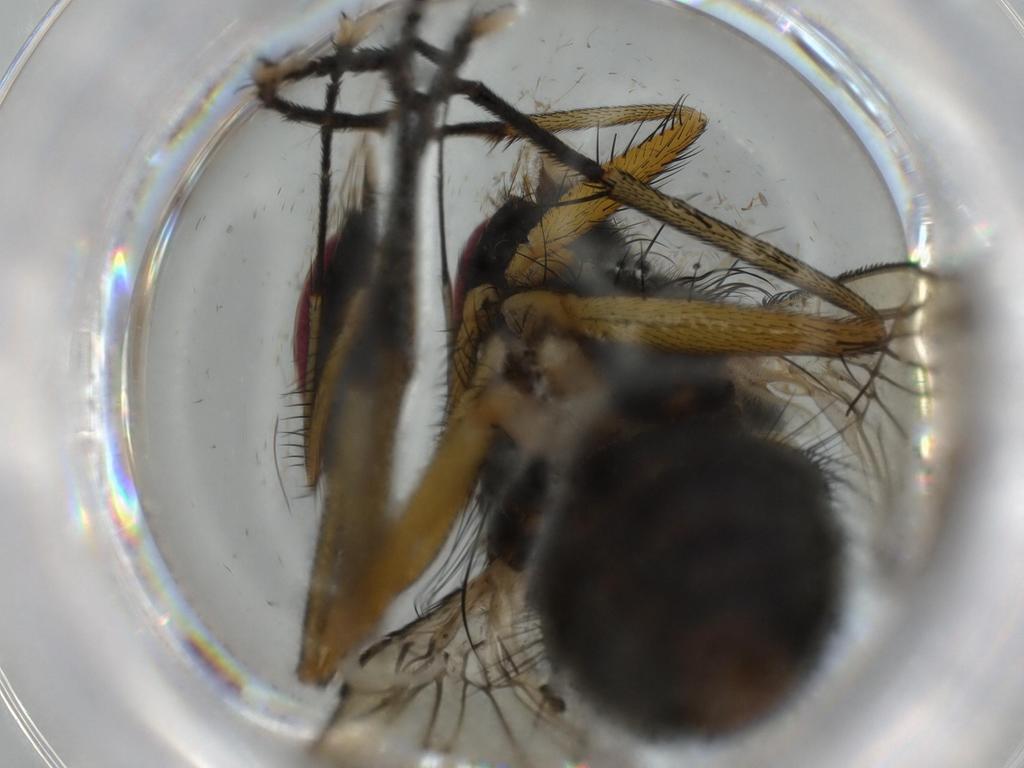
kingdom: Animalia
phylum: Arthropoda
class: Insecta
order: Diptera
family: Muscidae
